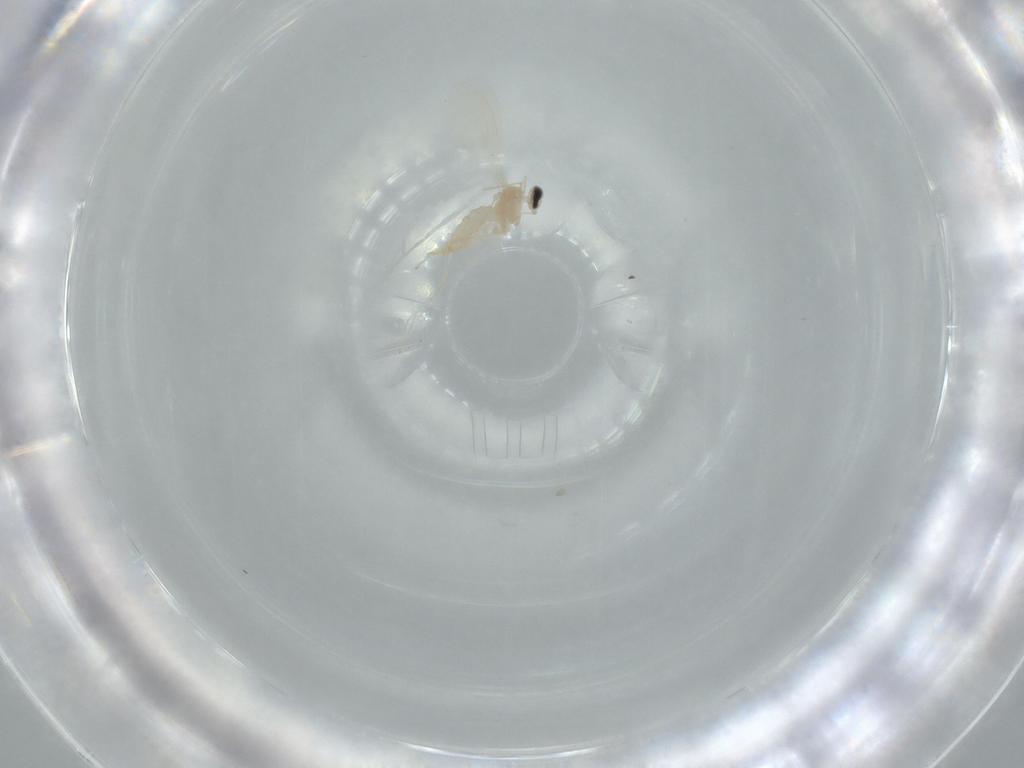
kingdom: Animalia
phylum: Arthropoda
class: Insecta
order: Diptera
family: Cecidomyiidae
